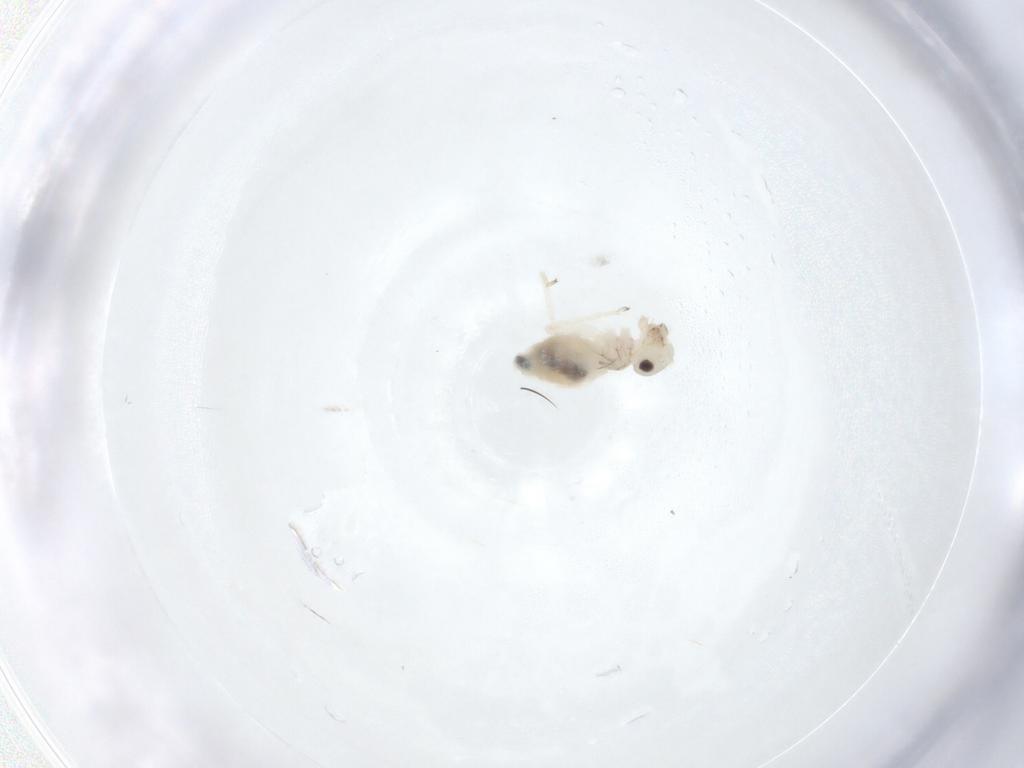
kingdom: Animalia
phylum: Arthropoda
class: Insecta
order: Psocodea
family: Caeciliusidae
